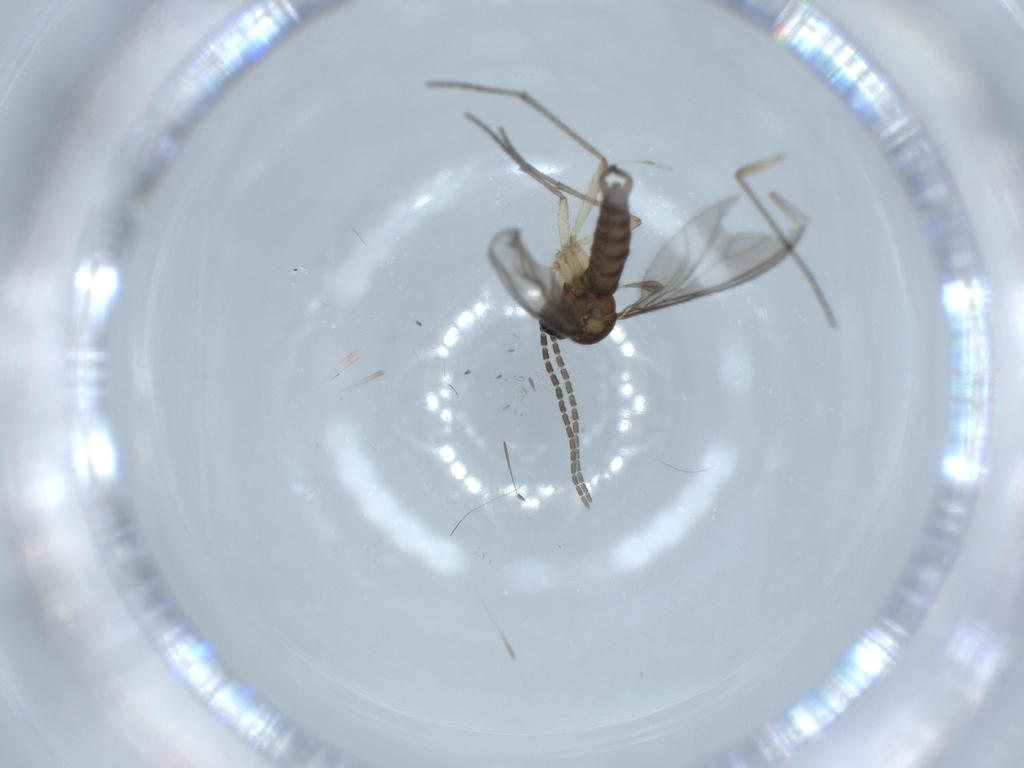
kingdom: Animalia
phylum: Arthropoda
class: Insecta
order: Diptera
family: Sciaridae
